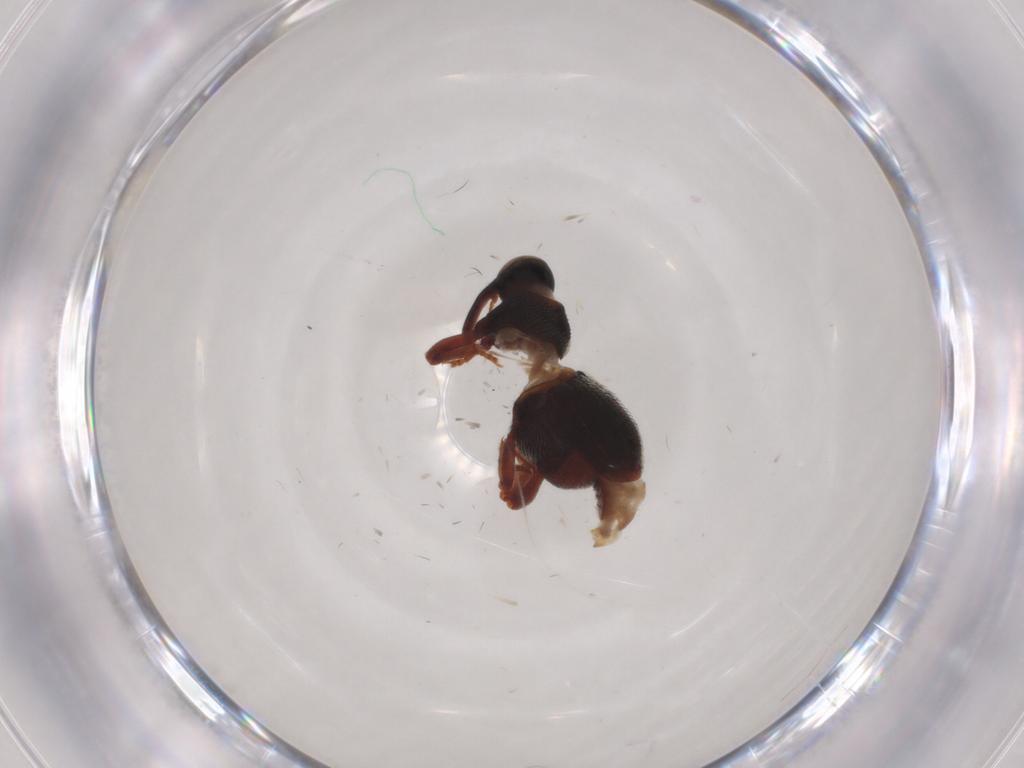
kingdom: Animalia
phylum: Arthropoda
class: Insecta
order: Coleoptera
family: Curculionidae
